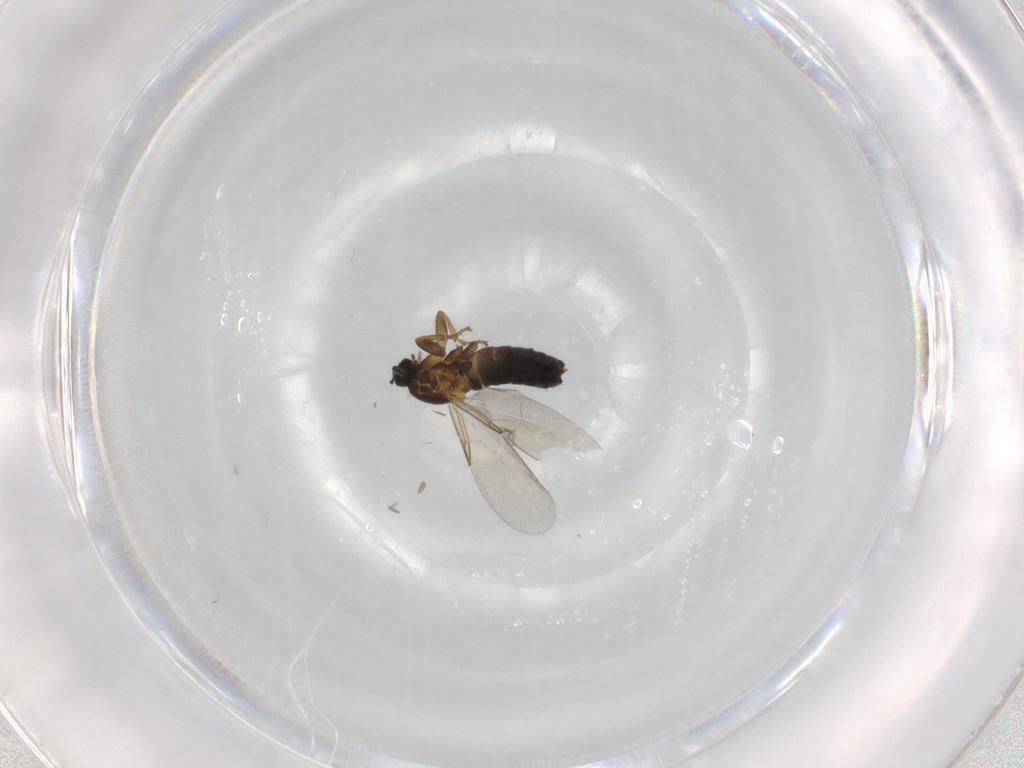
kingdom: Animalia
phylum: Arthropoda
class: Insecta
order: Diptera
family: Scatopsidae
